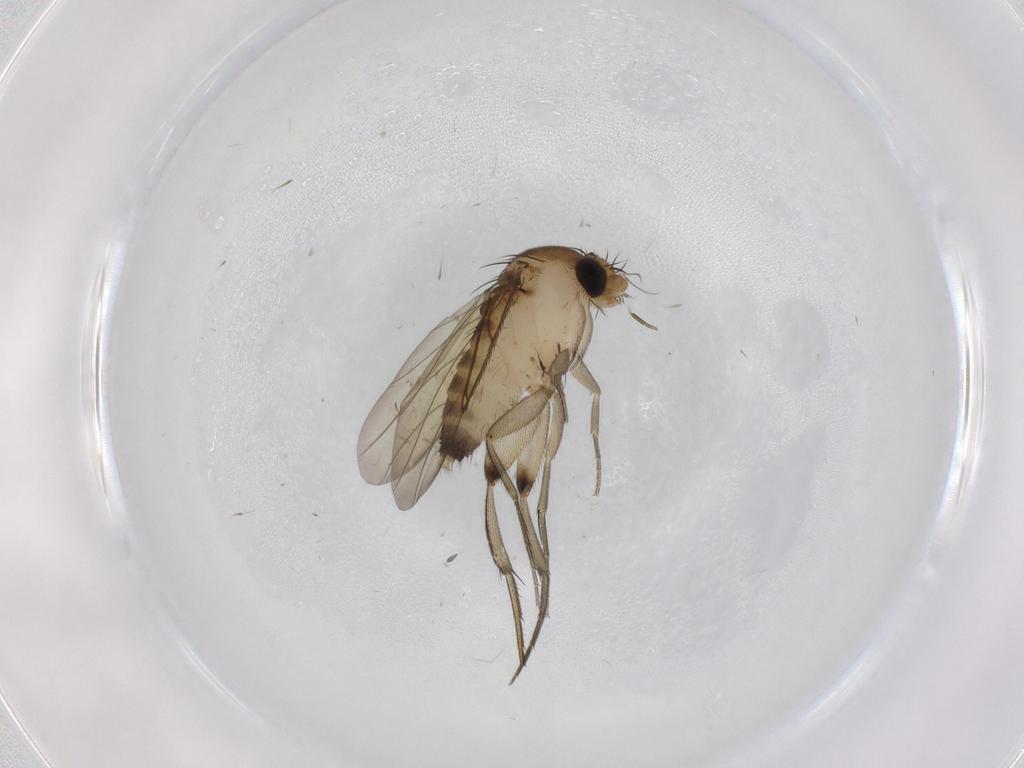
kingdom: Animalia
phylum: Arthropoda
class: Insecta
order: Diptera
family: Phoridae
